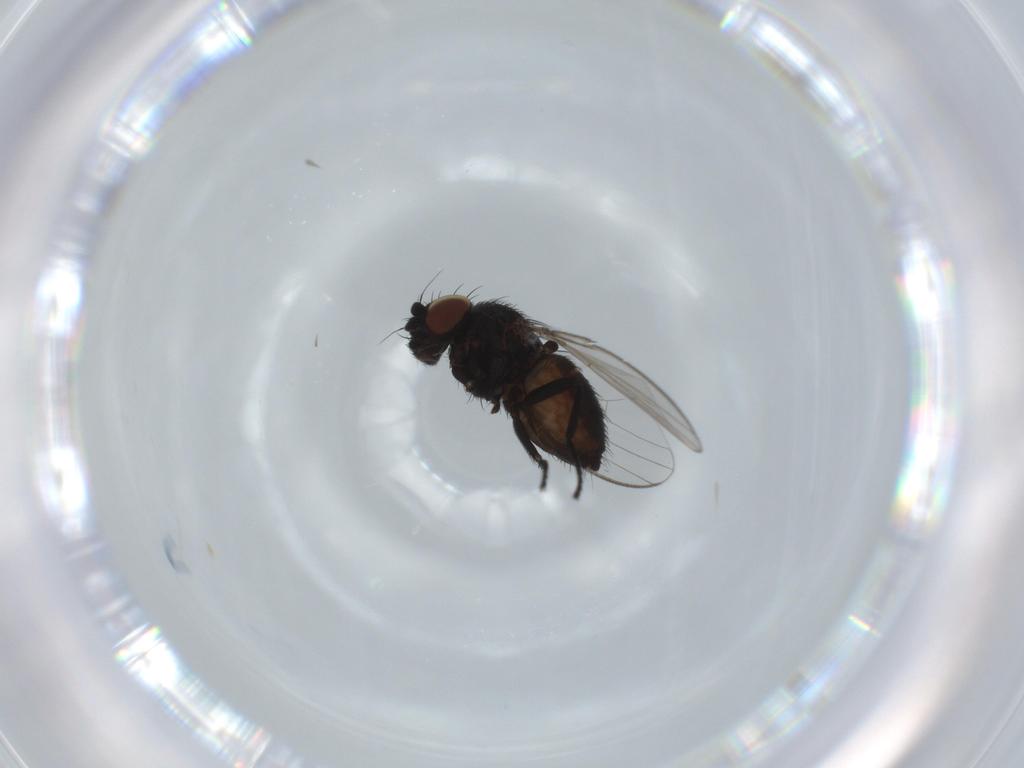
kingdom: Animalia
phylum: Arthropoda
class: Insecta
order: Diptera
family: Milichiidae
